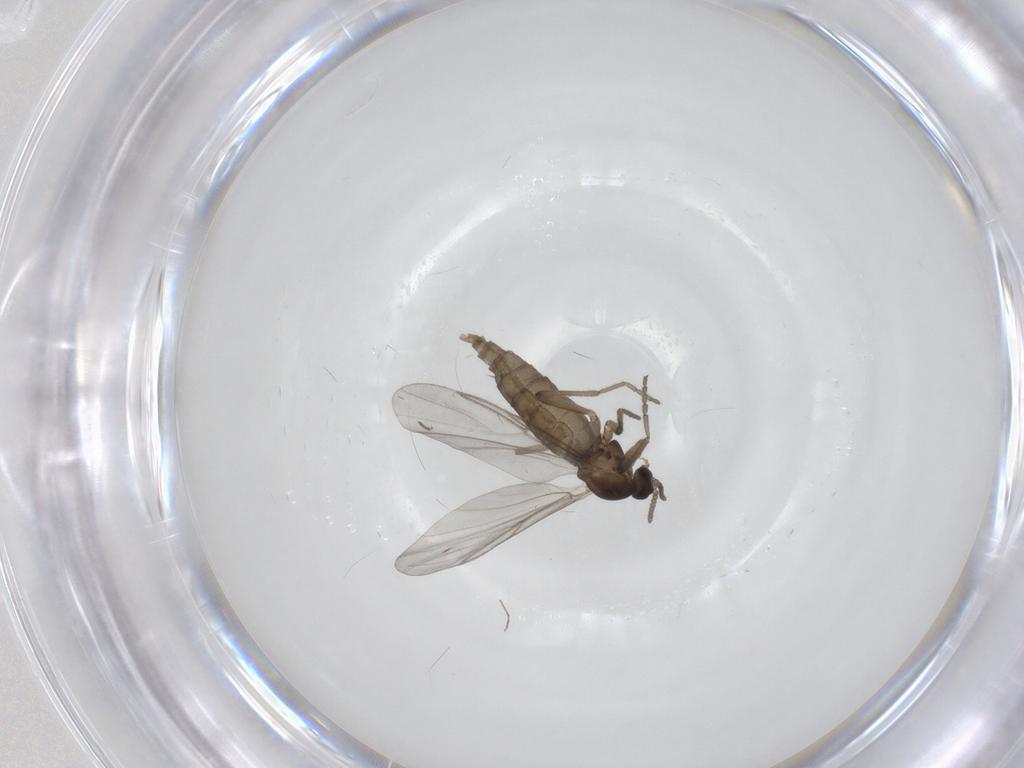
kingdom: Animalia
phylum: Arthropoda
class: Insecta
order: Diptera
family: Cecidomyiidae
